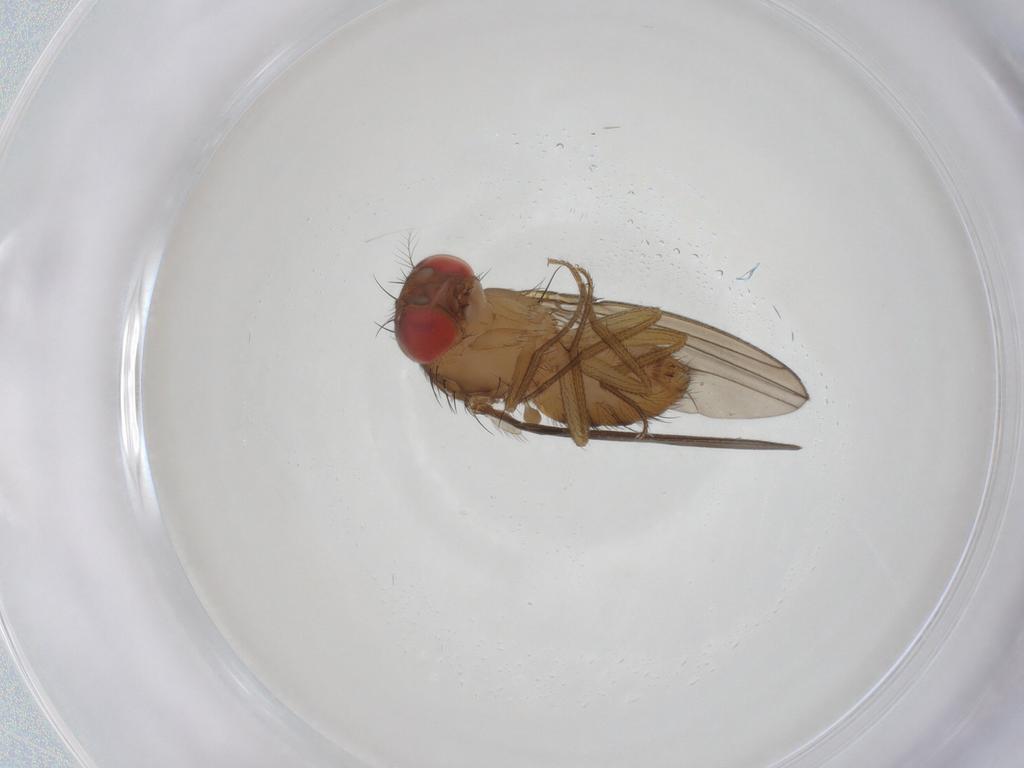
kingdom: Animalia
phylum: Arthropoda
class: Insecta
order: Diptera
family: Drosophilidae
